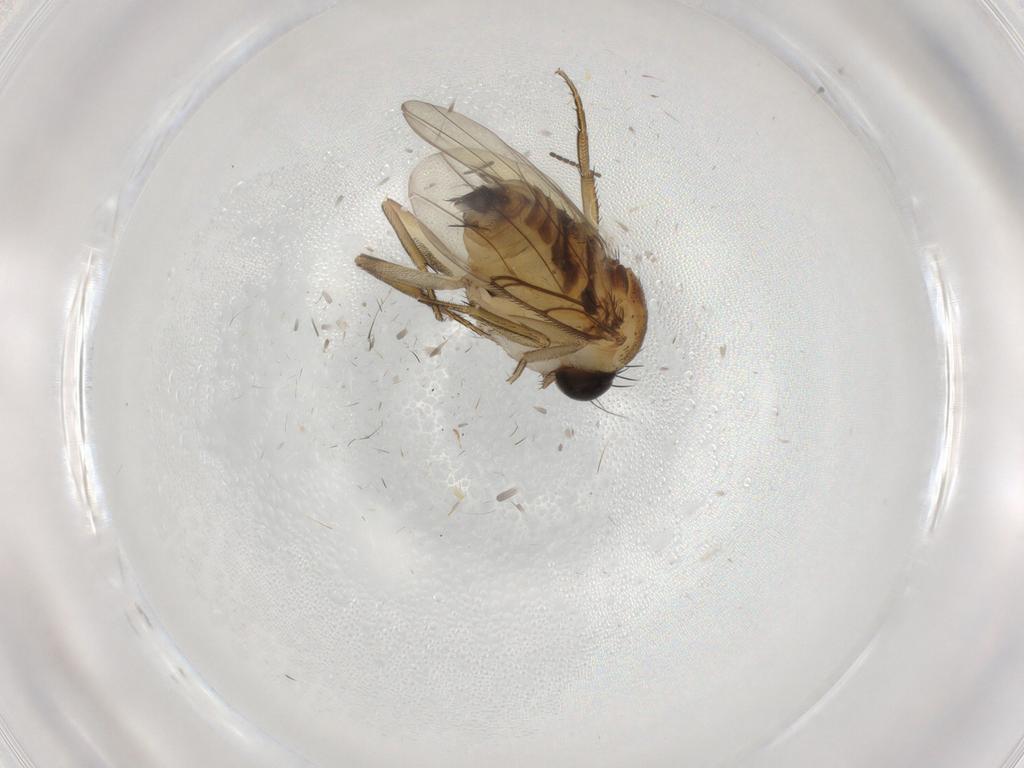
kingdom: Animalia
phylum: Arthropoda
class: Insecta
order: Diptera
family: Phoridae
